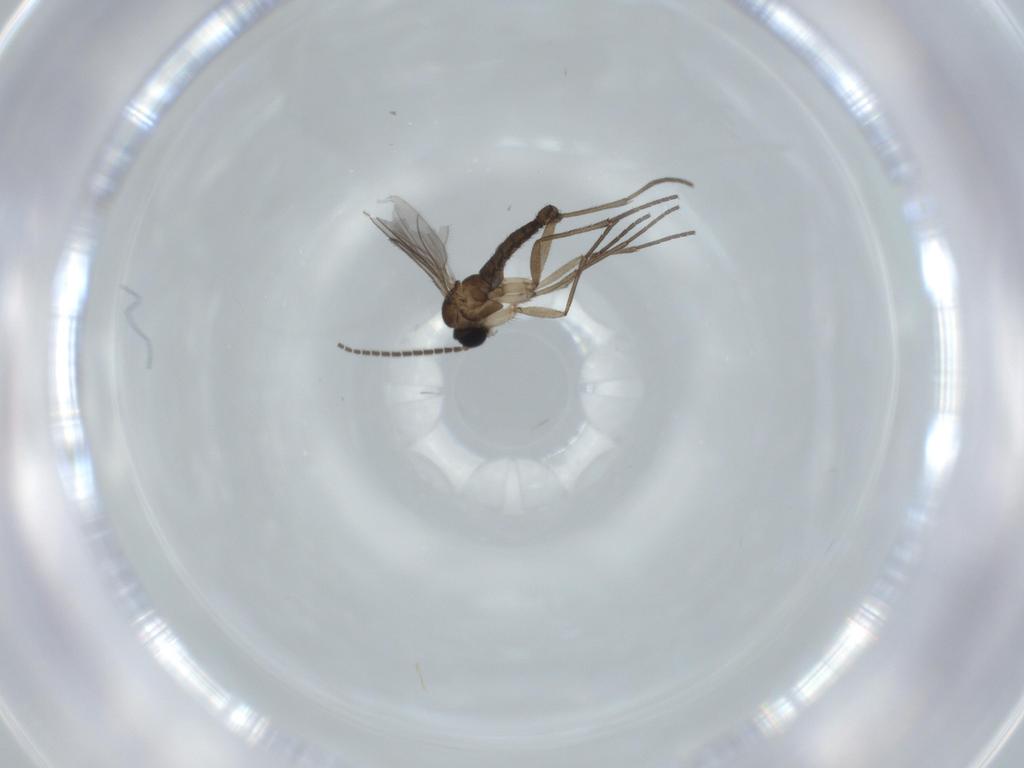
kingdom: Animalia
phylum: Arthropoda
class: Insecta
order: Diptera
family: Sciaridae
